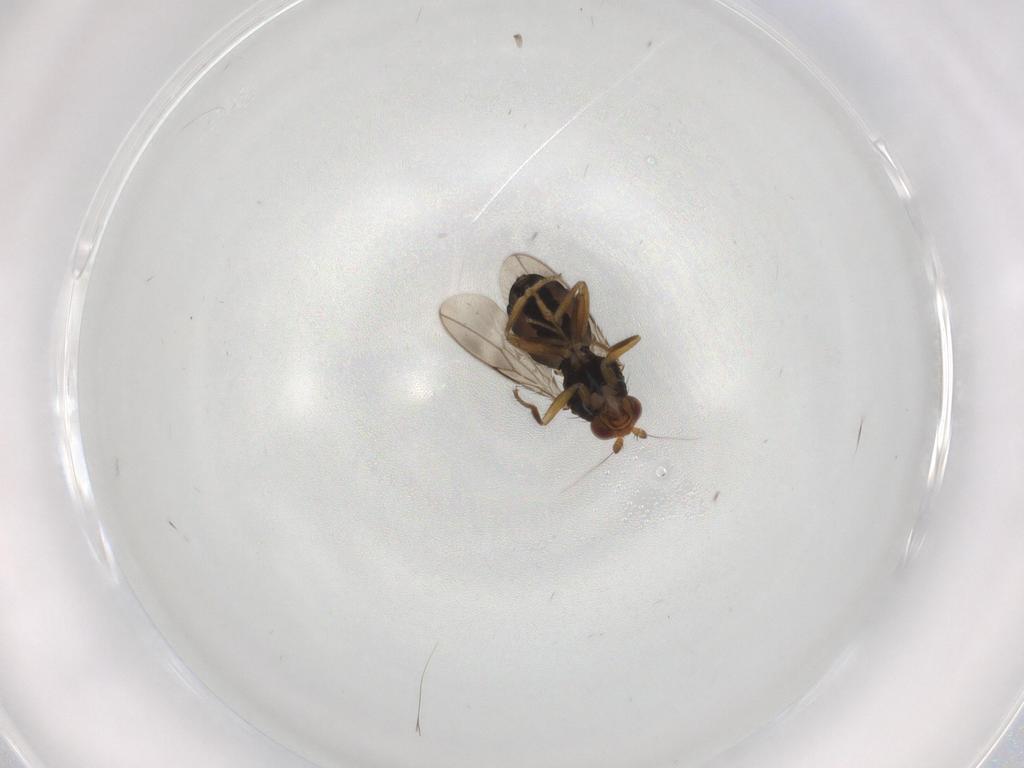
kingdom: Animalia
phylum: Arthropoda
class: Insecta
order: Diptera
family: Sphaeroceridae
